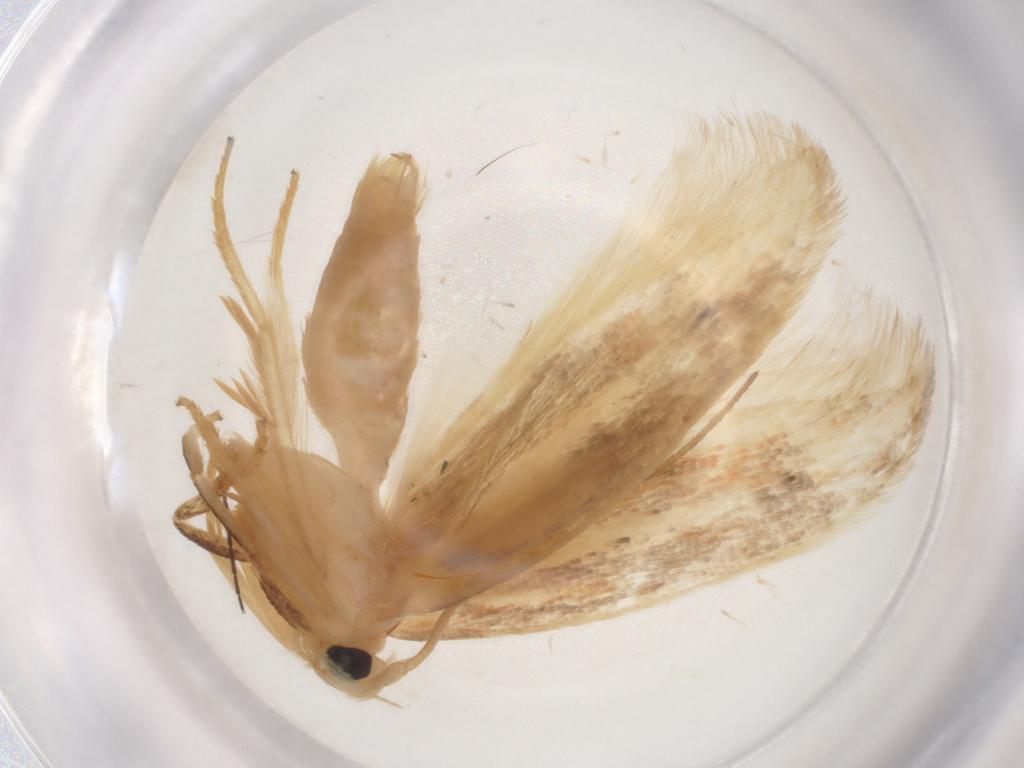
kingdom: Animalia
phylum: Arthropoda
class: Insecta
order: Lepidoptera
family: Geometridae
